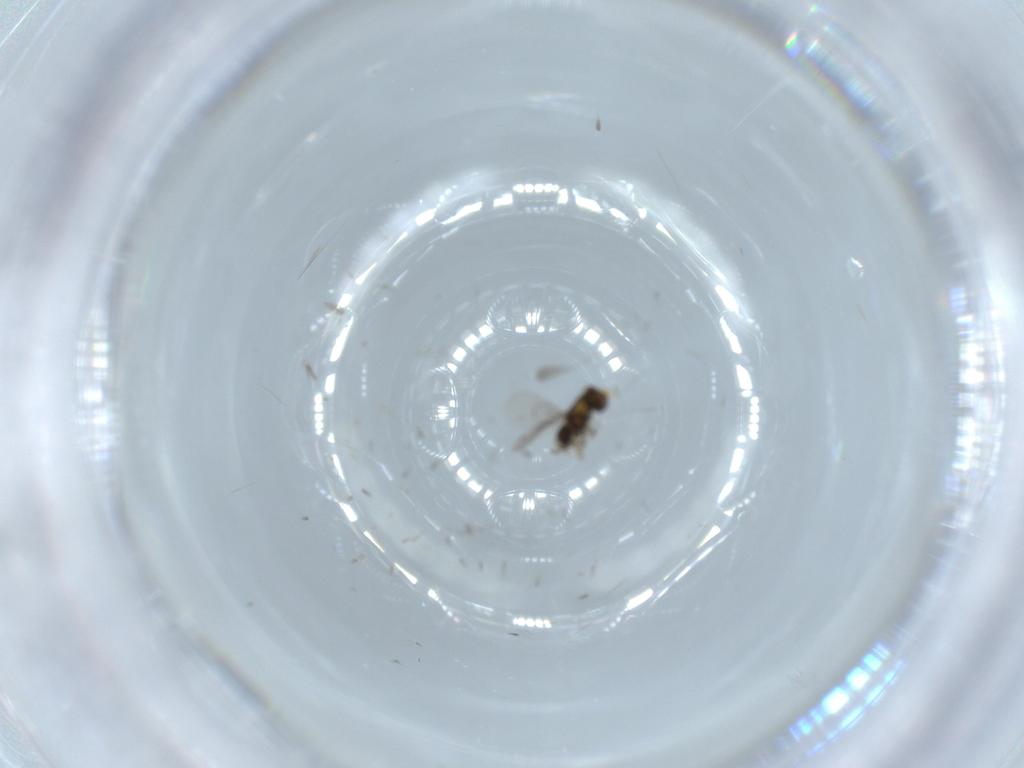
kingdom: Animalia
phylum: Arthropoda
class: Insecta
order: Hymenoptera
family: Eulophidae
